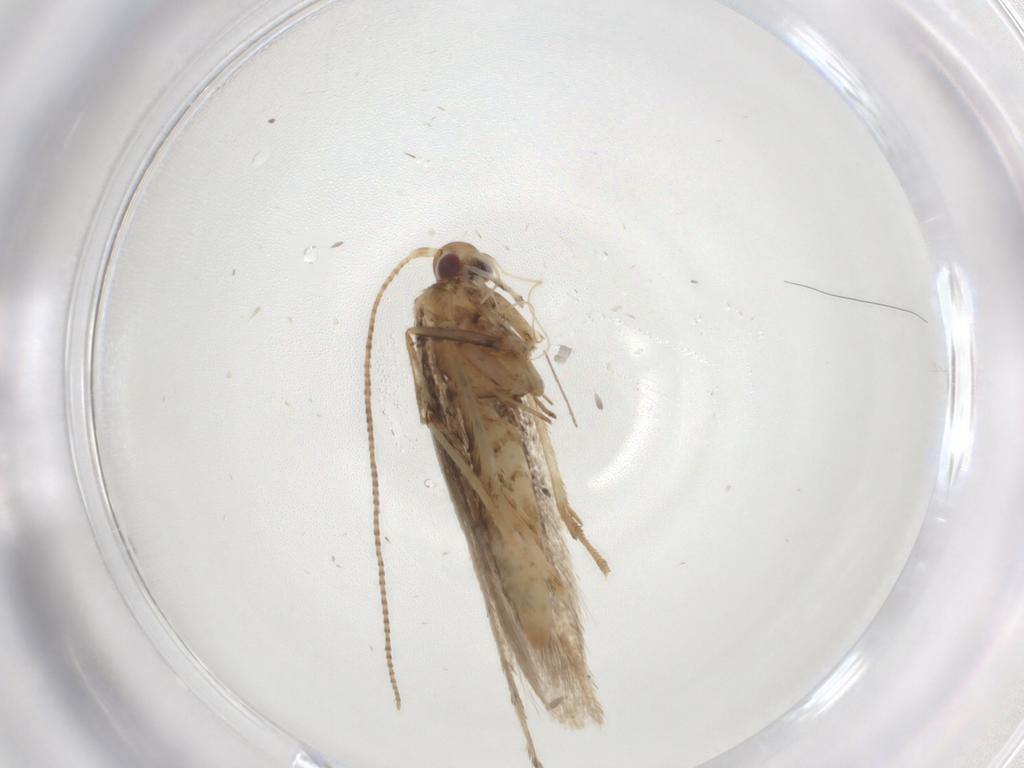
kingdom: Animalia
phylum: Arthropoda
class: Insecta
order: Lepidoptera
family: Gracillariidae
